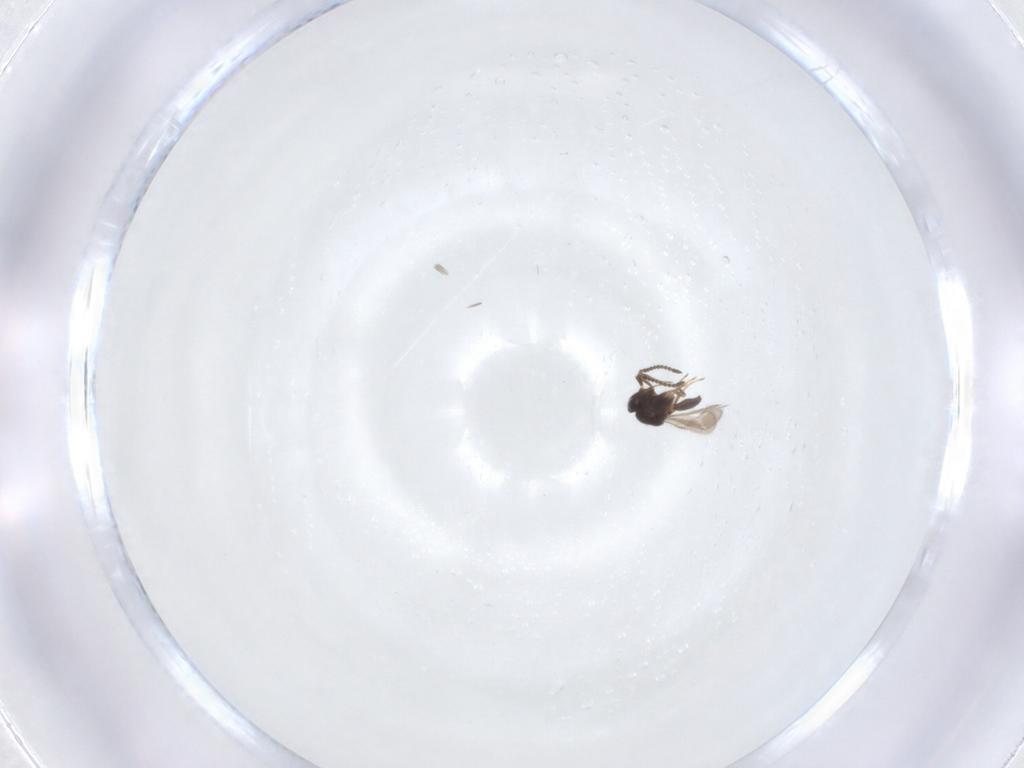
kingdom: Animalia
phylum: Arthropoda
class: Insecta
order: Hymenoptera
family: Scelionidae
